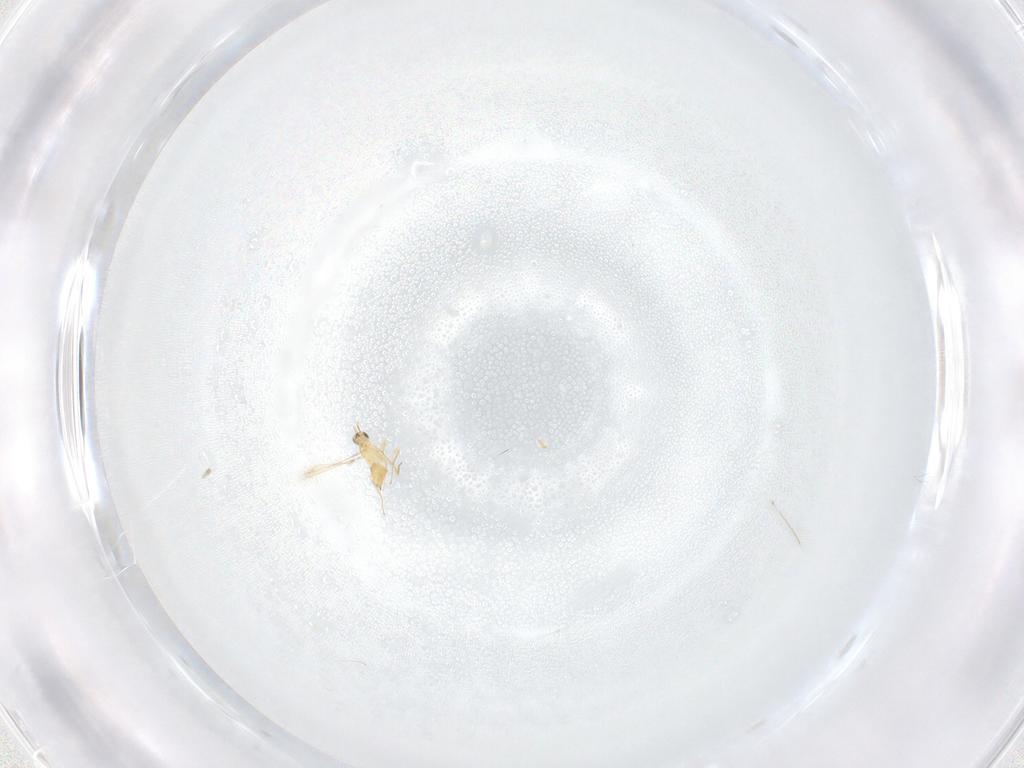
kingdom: Animalia
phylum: Arthropoda
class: Insecta
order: Hymenoptera
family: Mymaridae
